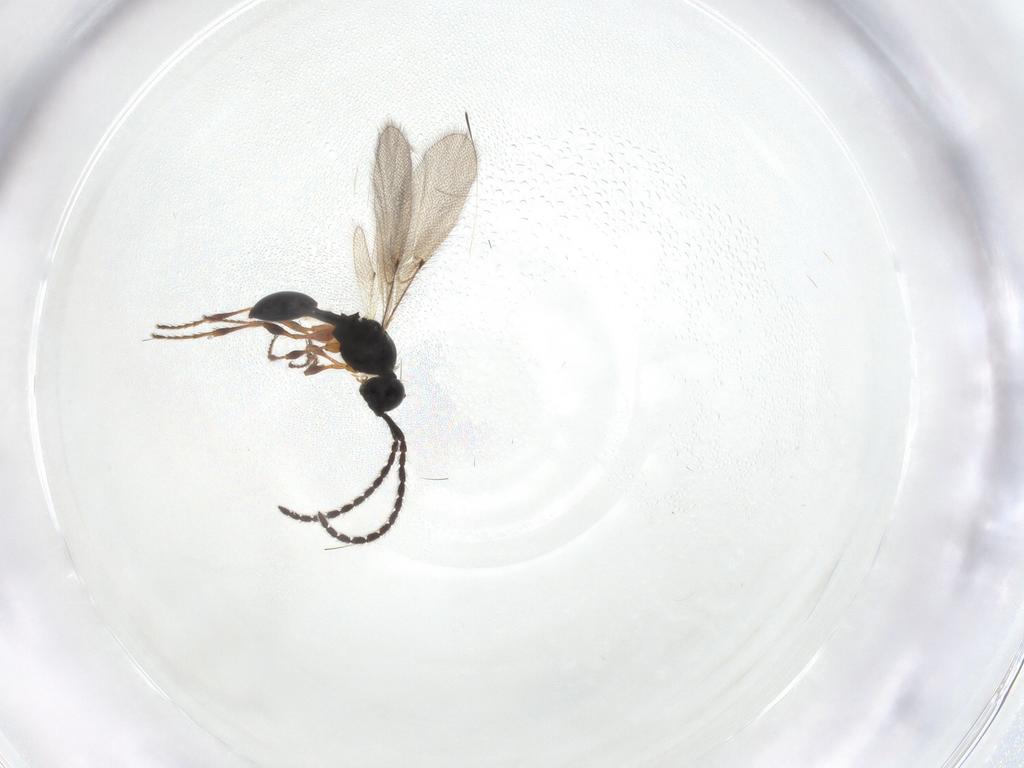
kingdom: Animalia
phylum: Arthropoda
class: Insecta
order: Hymenoptera
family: Diapriidae
